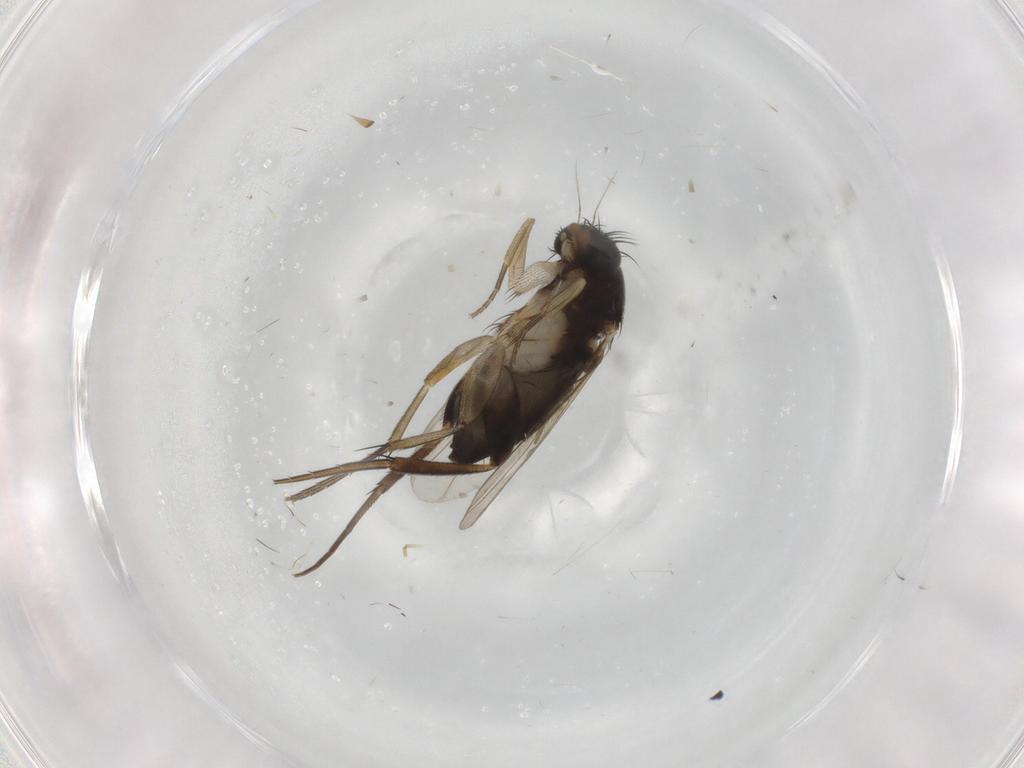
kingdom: Animalia
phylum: Arthropoda
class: Insecta
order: Diptera
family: Phoridae
